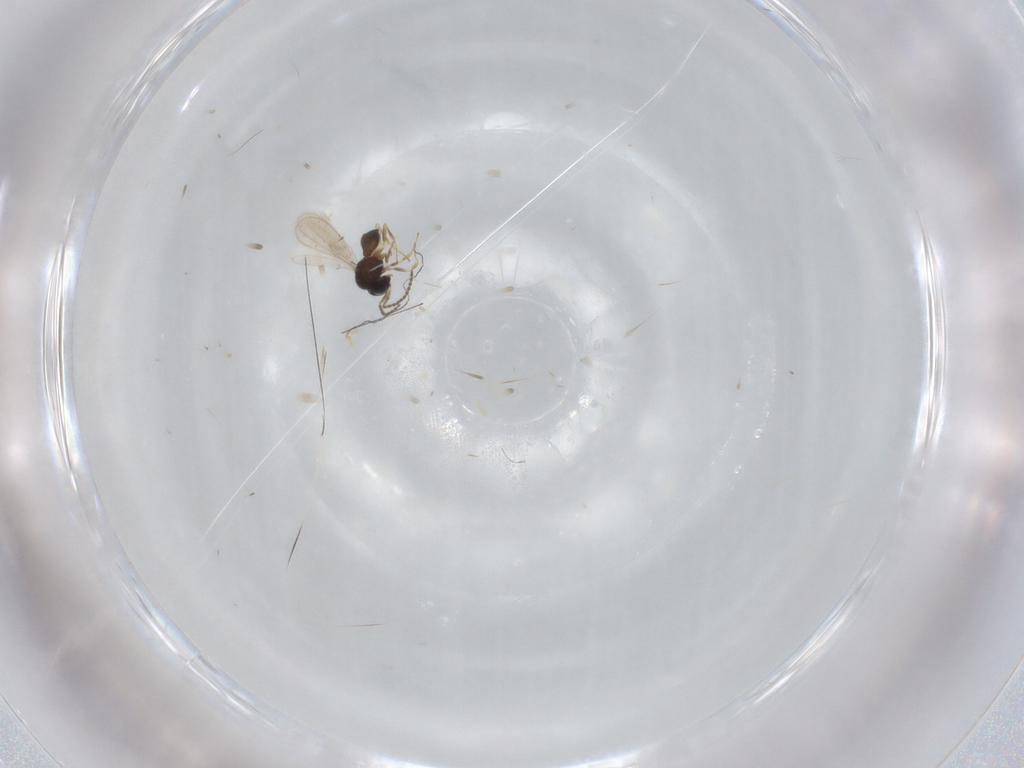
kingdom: Animalia
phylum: Arthropoda
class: Insecta
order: Hymenoptera
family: Scelionidae
